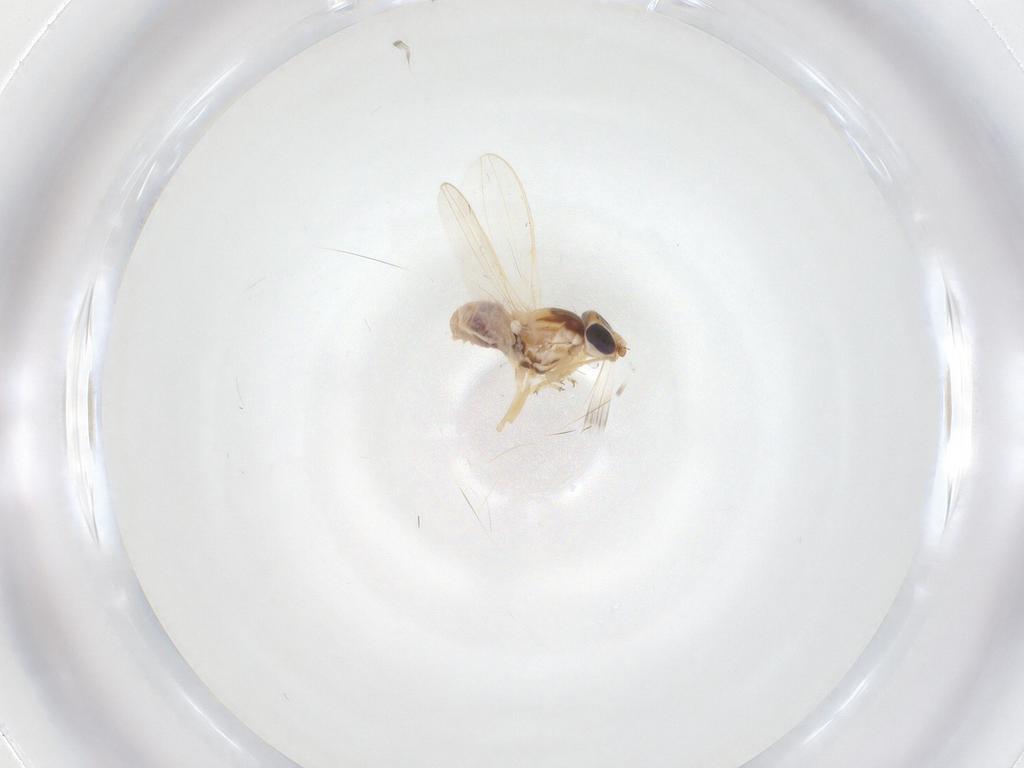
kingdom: Animalia
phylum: Arthropoda
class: Insecta
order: Diptera
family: Chloropidae
